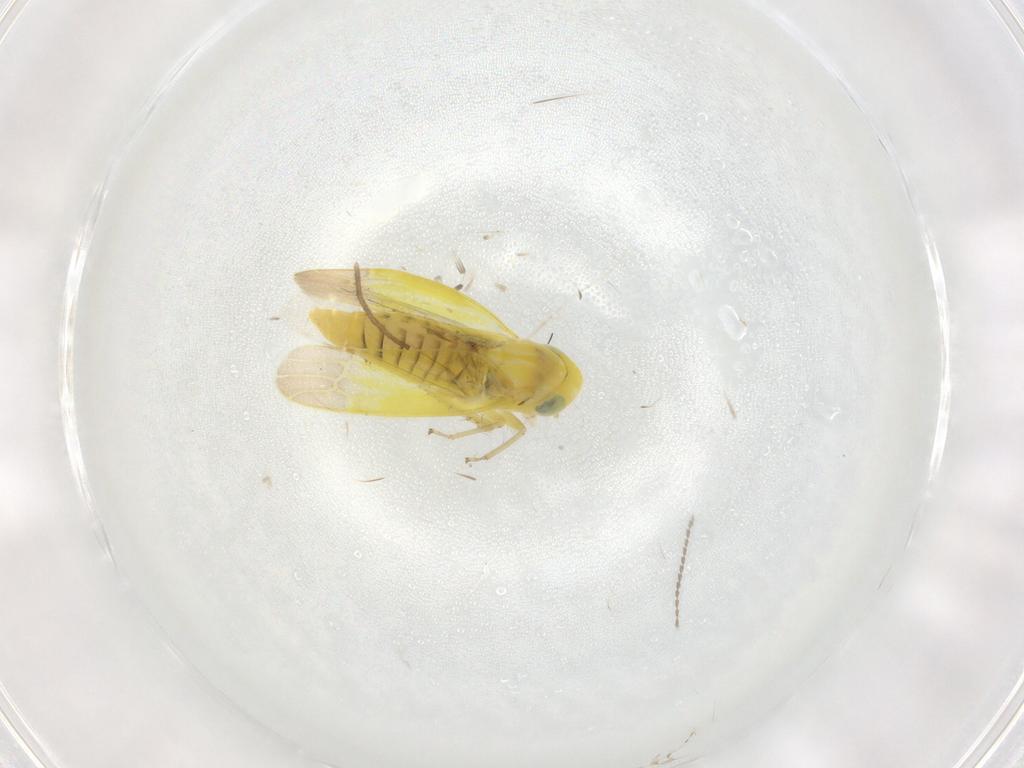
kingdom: Animalia
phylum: Arthropoda
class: Insecta
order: Hemiptera
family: Cicadellidae
